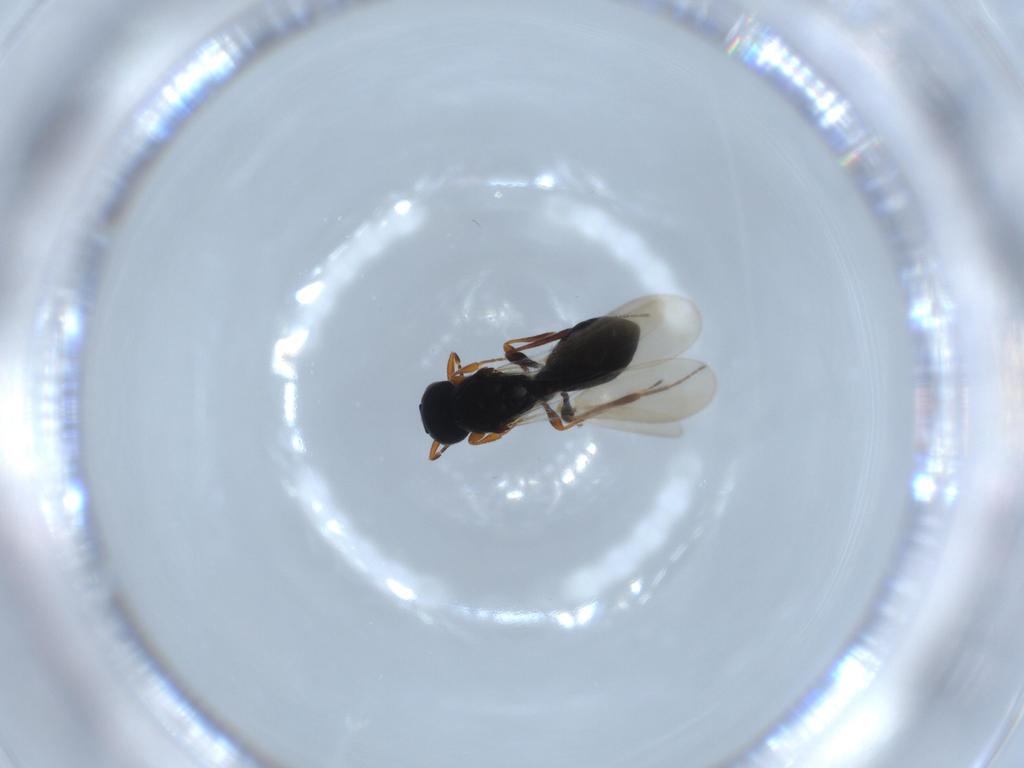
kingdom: Animalia
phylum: Arthropoda
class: Insecta
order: Hymenoptera
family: Platygastridae
